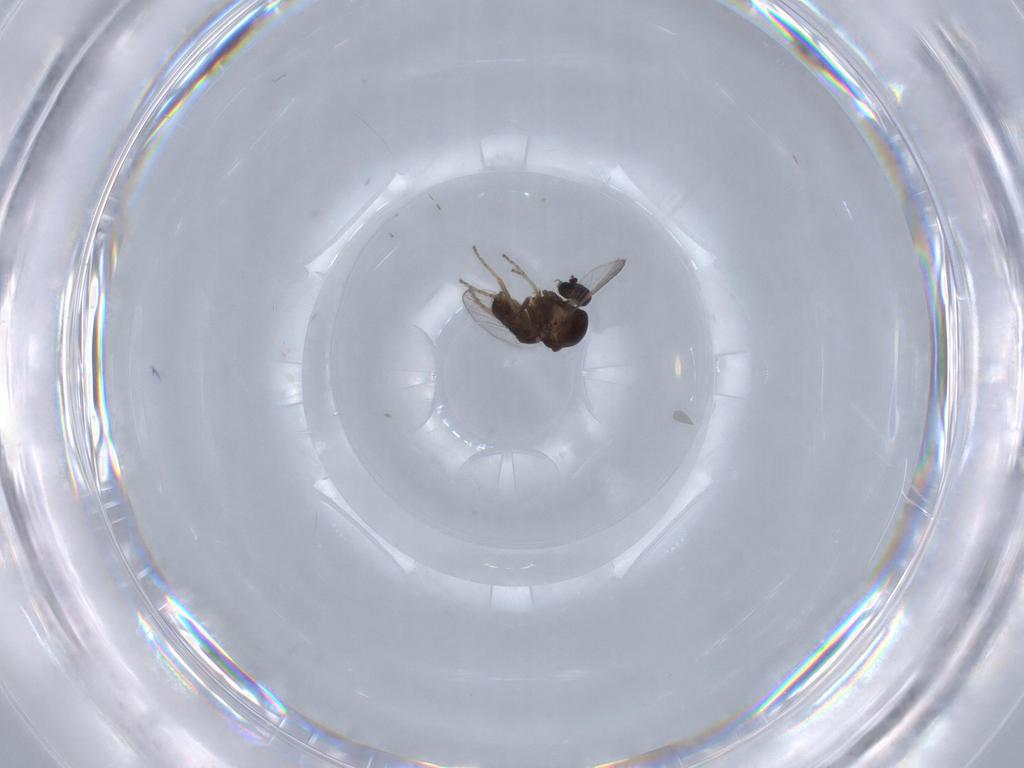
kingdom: Animalia
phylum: Arthropoda
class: Insecta
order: Diptera
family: Ceratopogonidae
